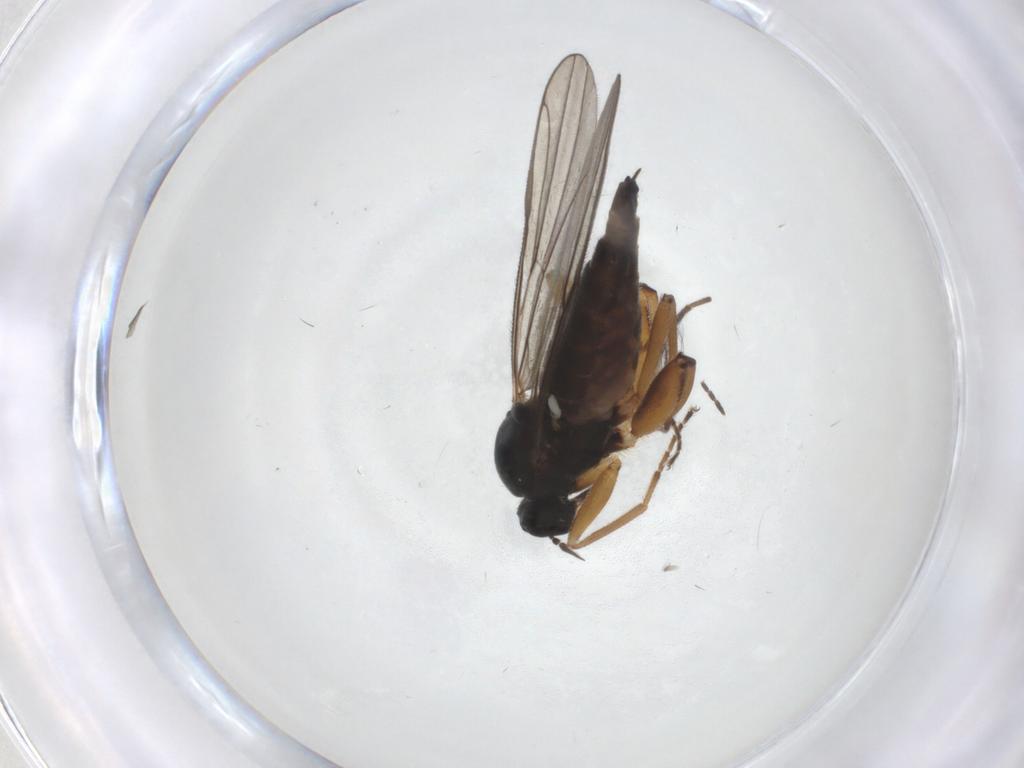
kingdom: Animalia
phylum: Arthropoda
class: Insecta
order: Diptera
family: Hybotidae
